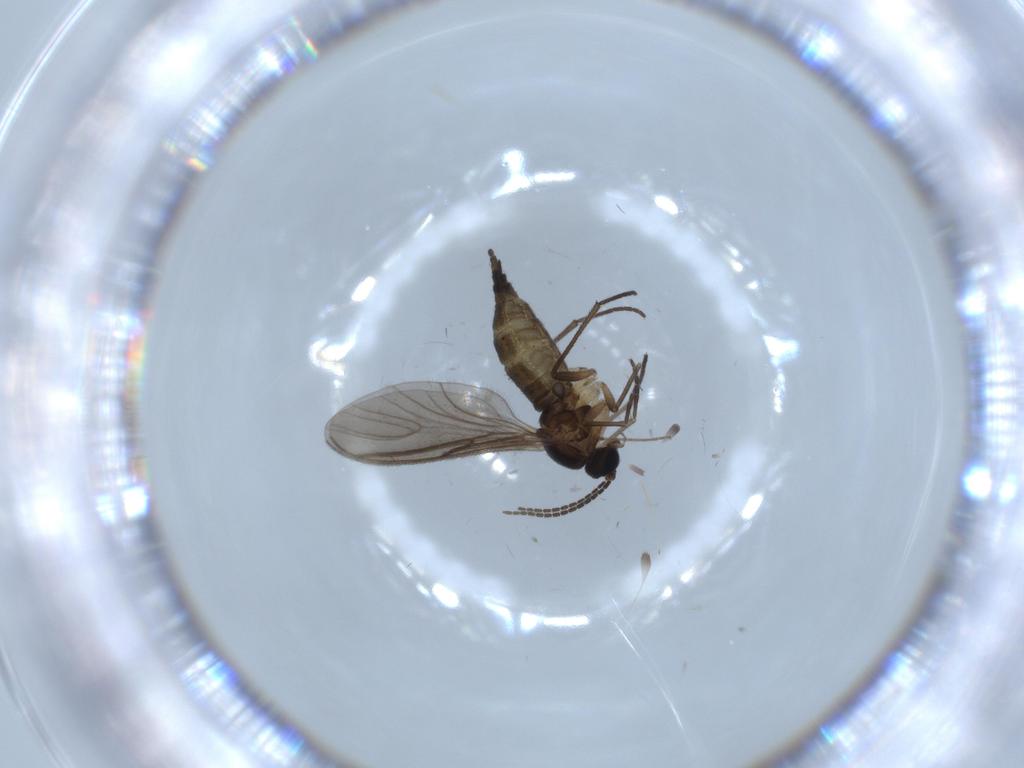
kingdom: Animalia
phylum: Arthropoda
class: Insecta
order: Diptera
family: Sciaridae
